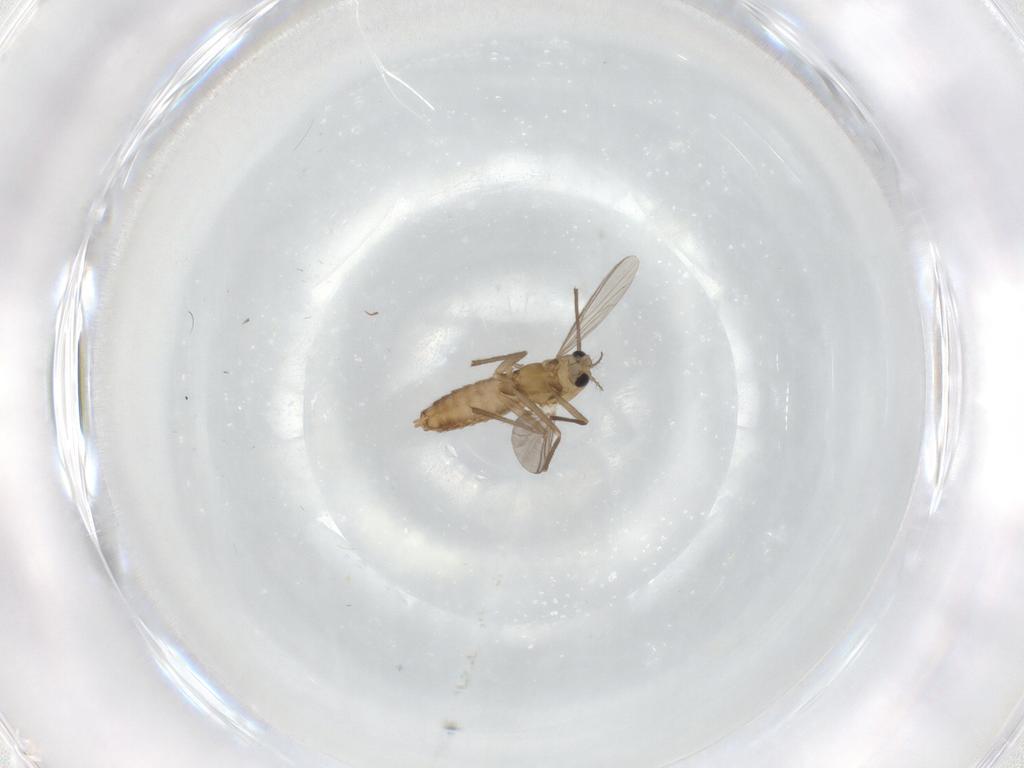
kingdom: Animalia
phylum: Arthropoda
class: Insecta
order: Diptera
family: Chironomidae
